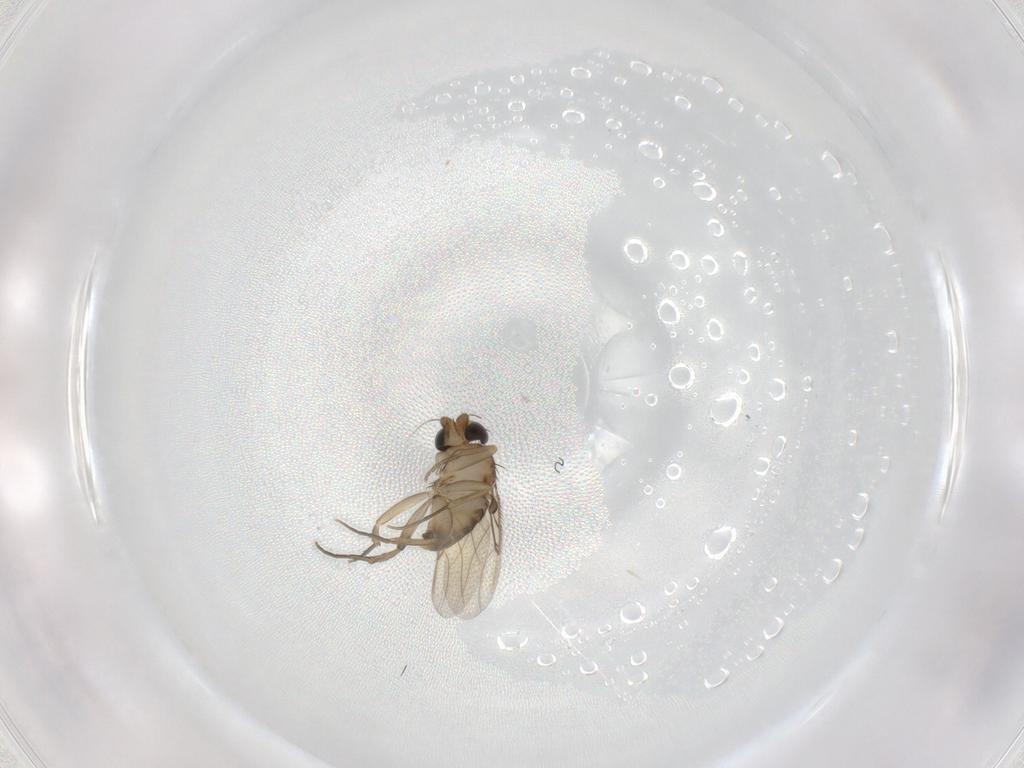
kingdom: Animalia
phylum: Arthropoda
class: Insecta
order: Diptera
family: Phoridae
